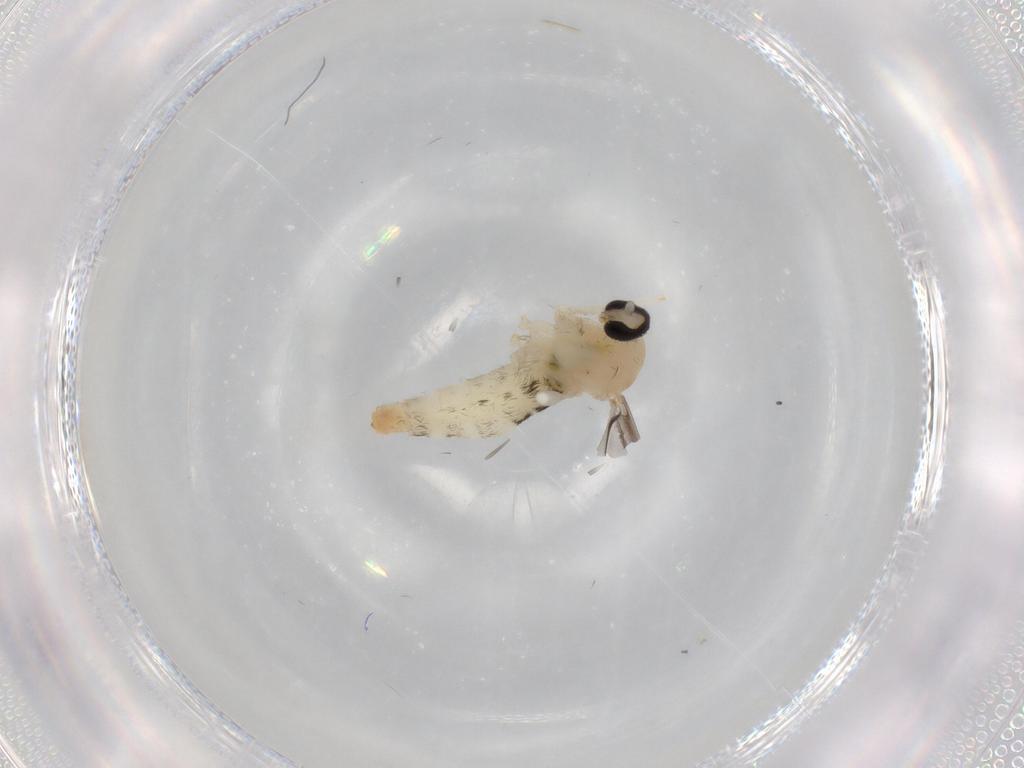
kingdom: Animalia
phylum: Arthropoda
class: Insecta
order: Diptera
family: Cecidomyiidae
